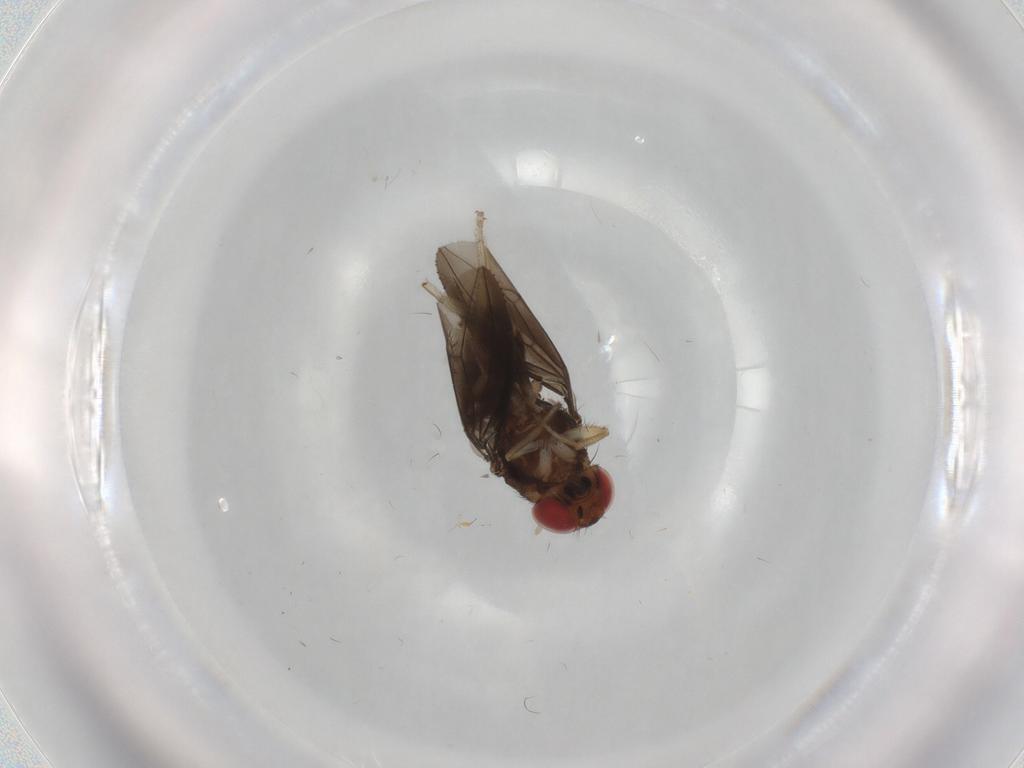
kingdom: Animalia
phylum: Arthropoda
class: Insecta
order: Diptera
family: Cecidomyiidae
